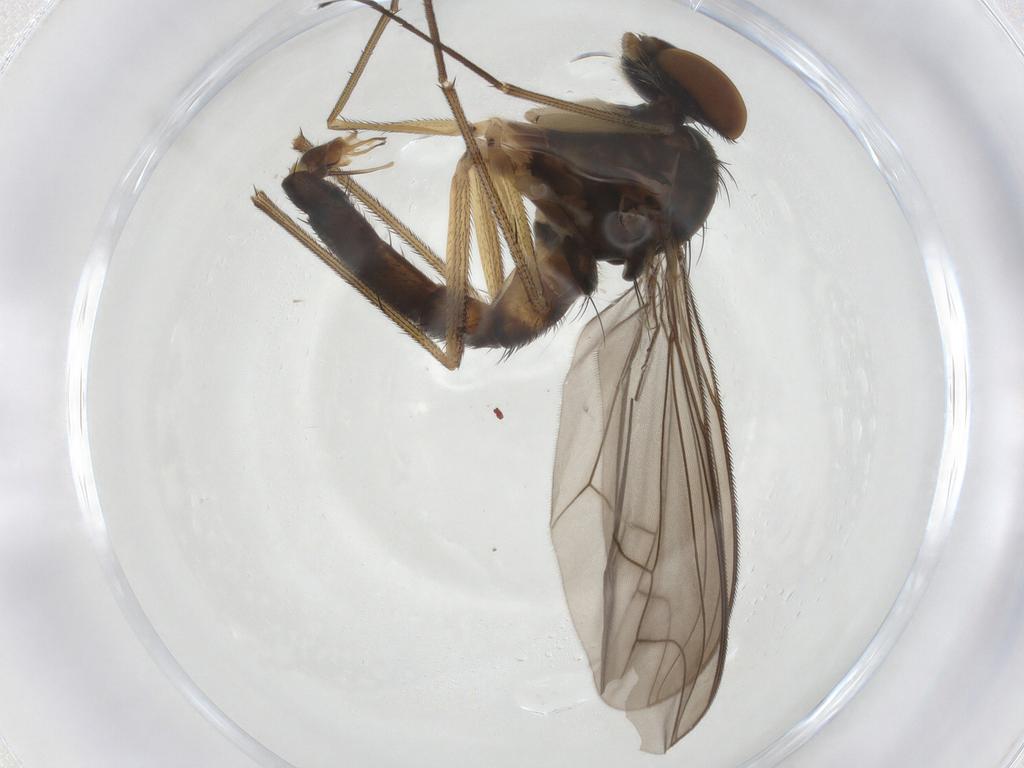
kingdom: Animalia
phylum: Arthropoda
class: Insecta
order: Diptera
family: Dolichopodidae
